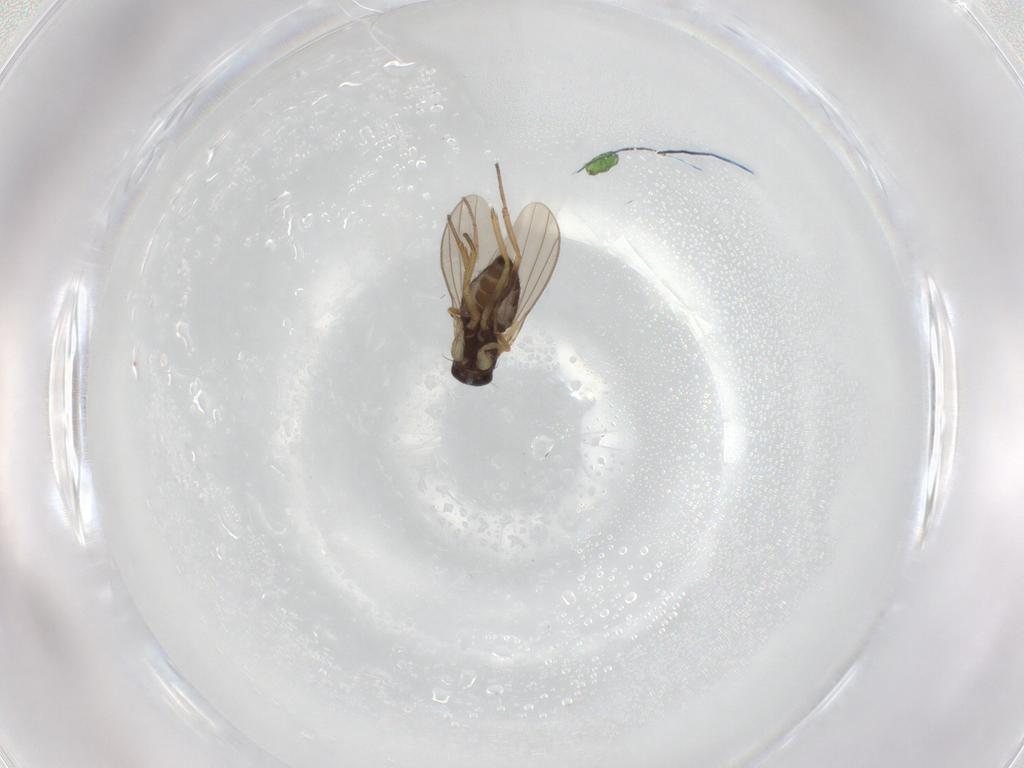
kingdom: Animalia
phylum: Arthropoda
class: Insecta
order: Diptera
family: Dolichopodidae
